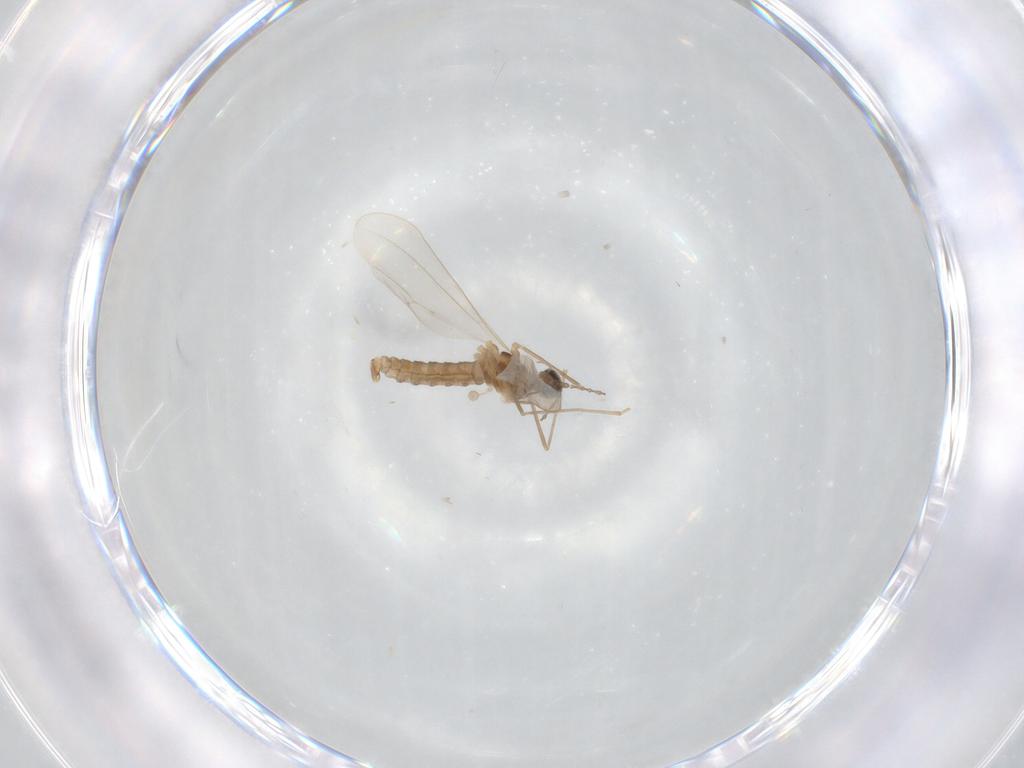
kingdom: Animalia
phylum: Arthropoda
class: Insecta
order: Diptera
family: Cecidomyiidae
